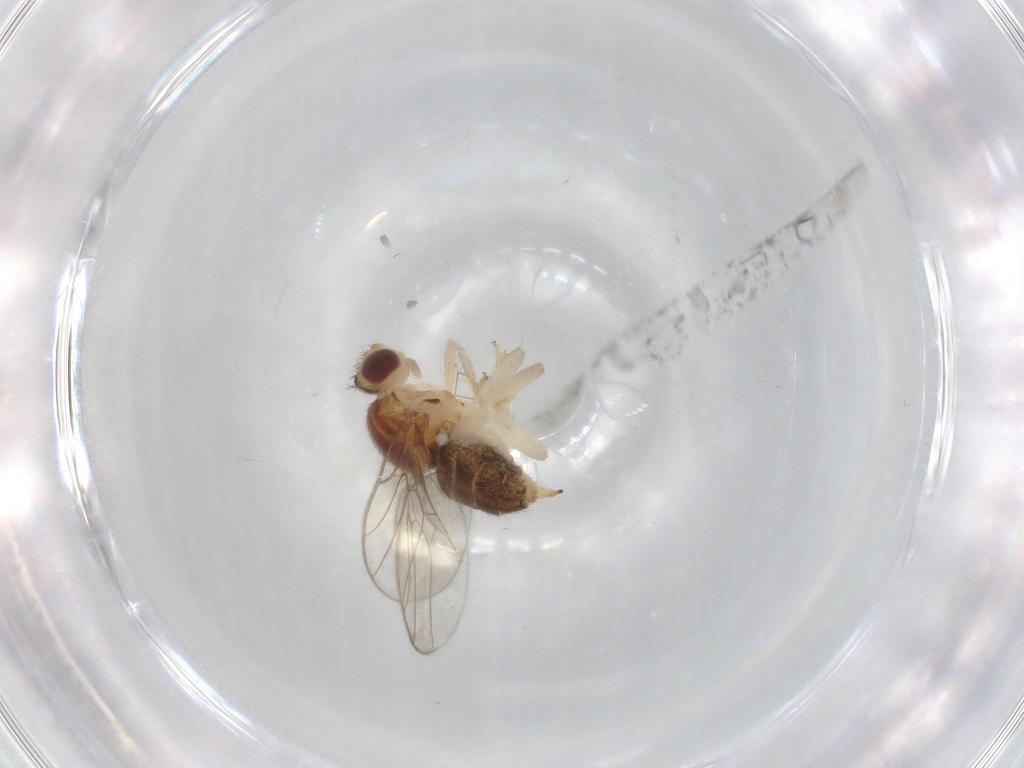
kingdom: Animalia
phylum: Arthropoda
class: Insecta
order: Diptera
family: Chloropidae
